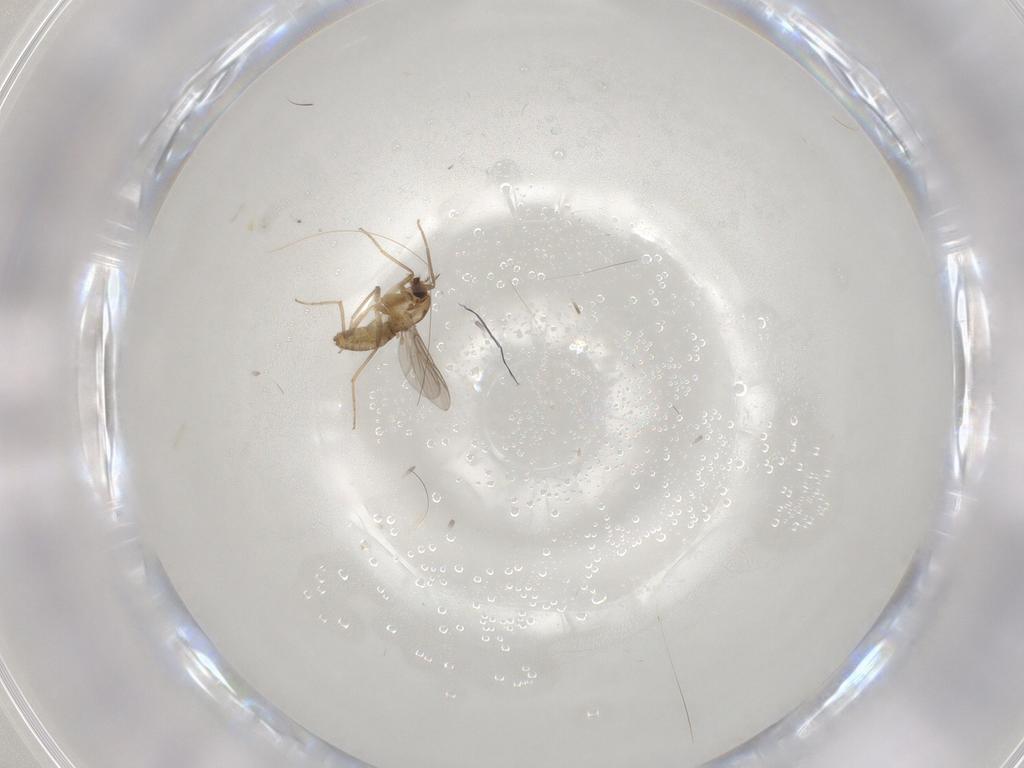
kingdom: Animalia
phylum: Arthropoda
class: Insecta
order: Diptera
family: Chironomidae
